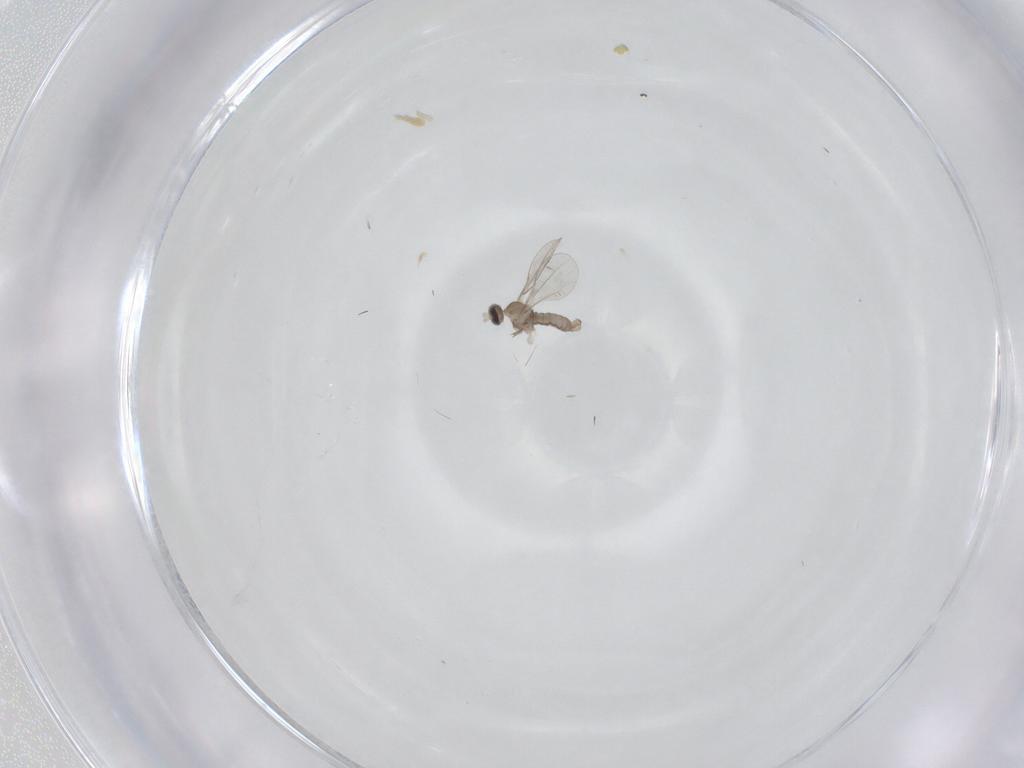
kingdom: Animalia
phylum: Arthropoda
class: Insecta
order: Diptera
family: Cecidomyiidae
